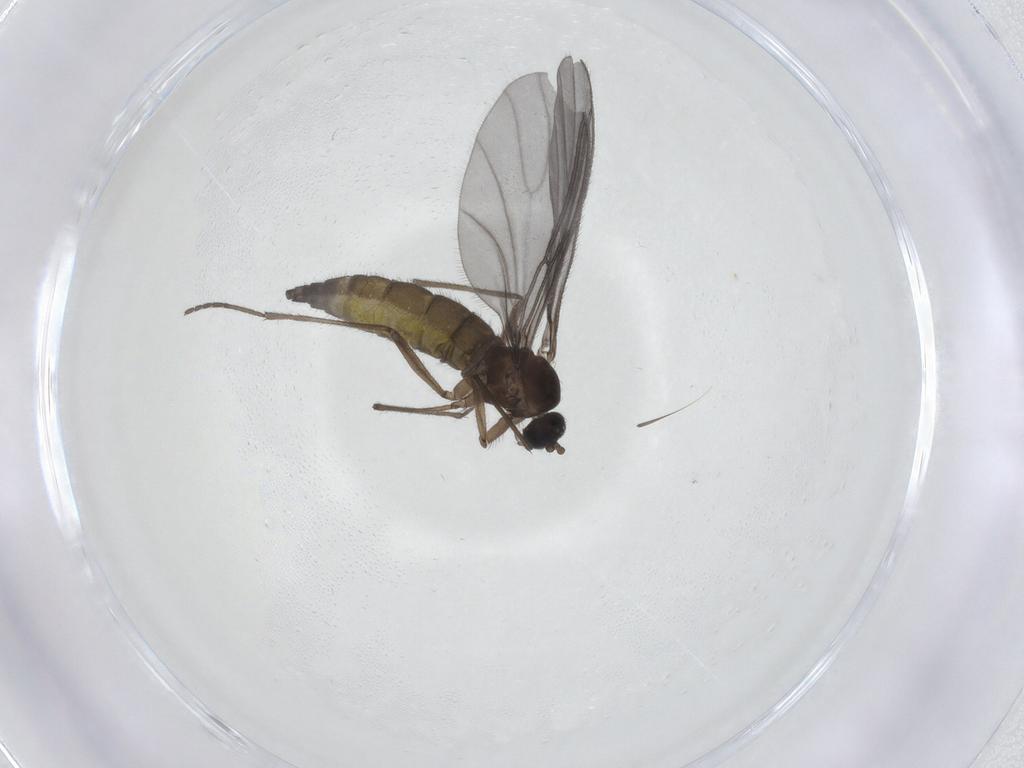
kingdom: Animalia
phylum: Arthropoda
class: Insecta
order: Diptera
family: Sciaridae
